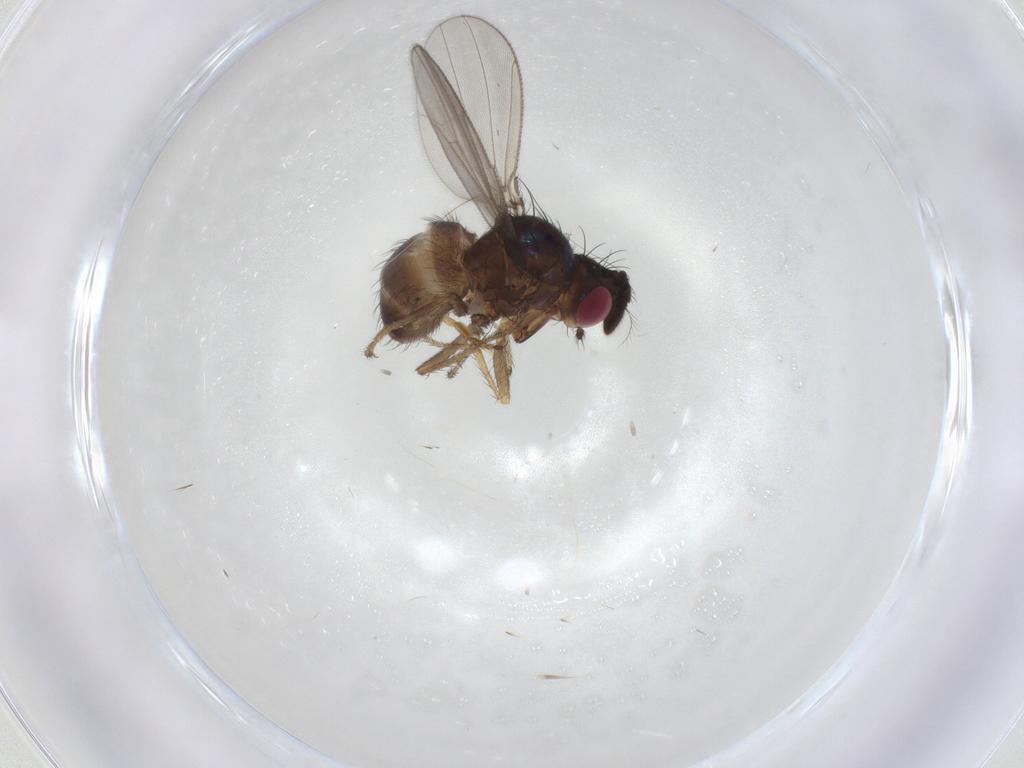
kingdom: Animalia
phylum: Arthropoda
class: Insecta
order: Diptera
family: Ephydridae
